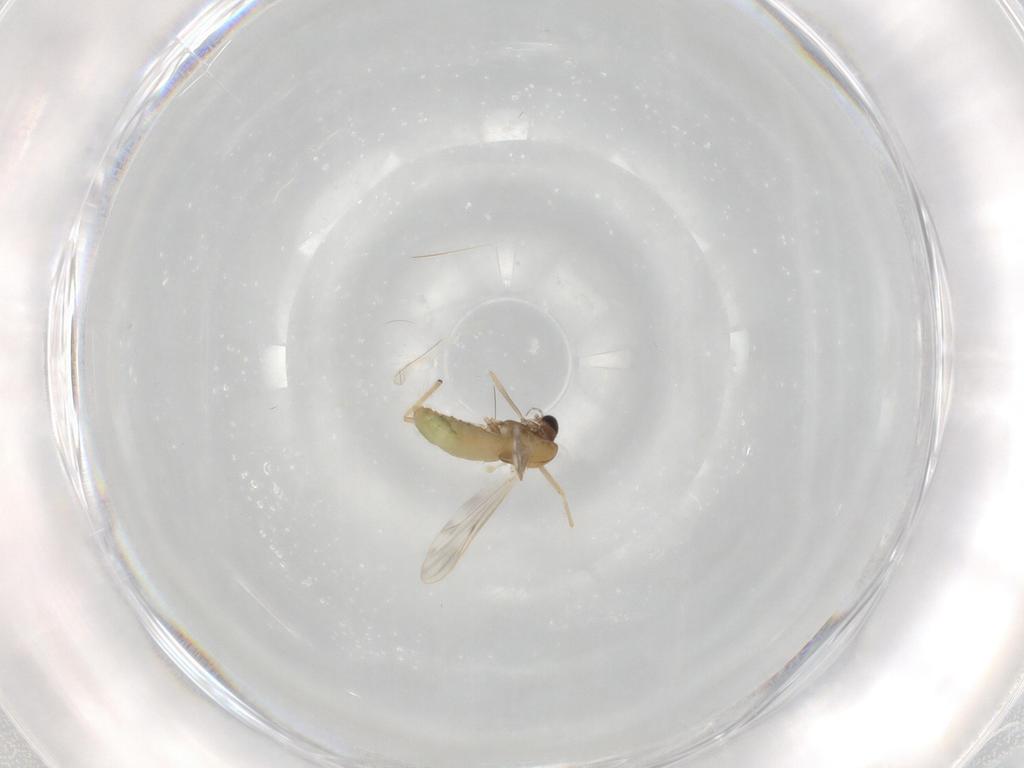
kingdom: Animalia
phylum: Arthropoda
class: Insecta
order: Diptera
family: Chironomidae
